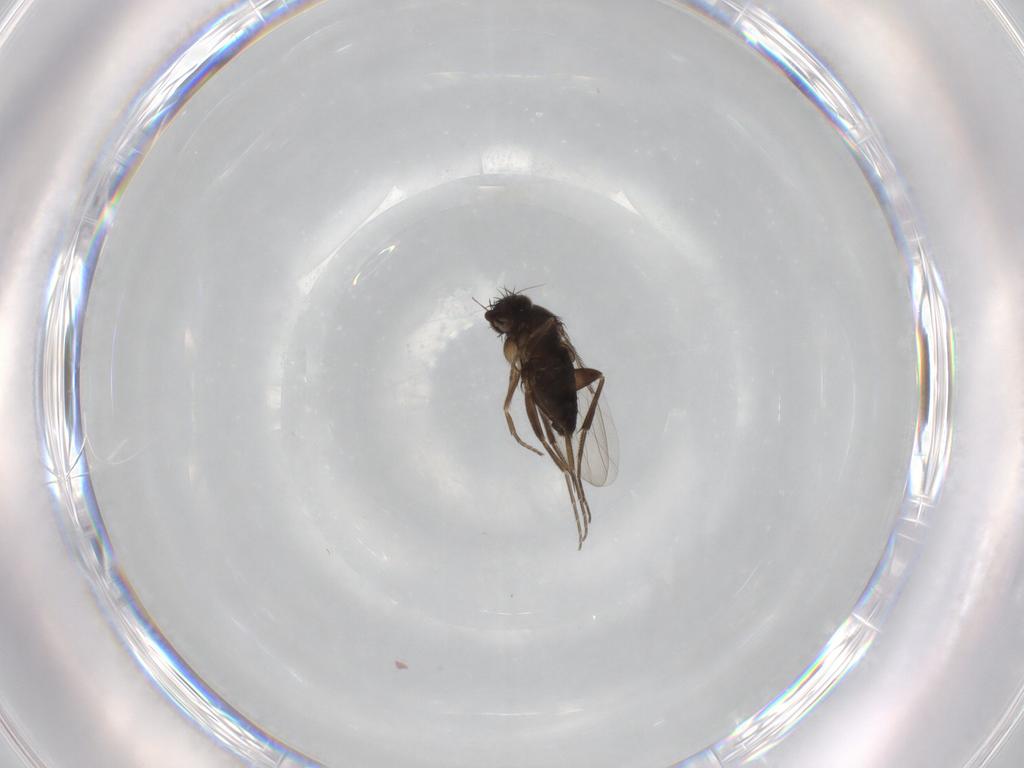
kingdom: Animalia
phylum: Arthropoda
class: Insecta
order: Diptera
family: Phoridae
